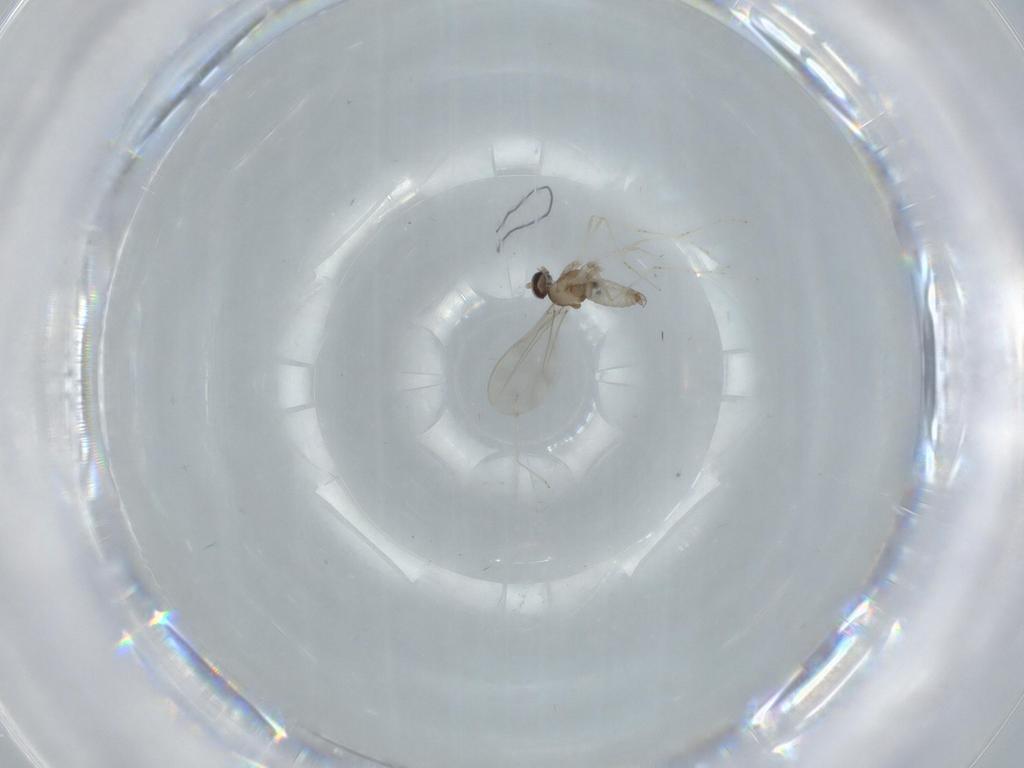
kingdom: Animalia
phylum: Arthropoda
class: Insecta
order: Diptera
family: Cecidomyiidae
